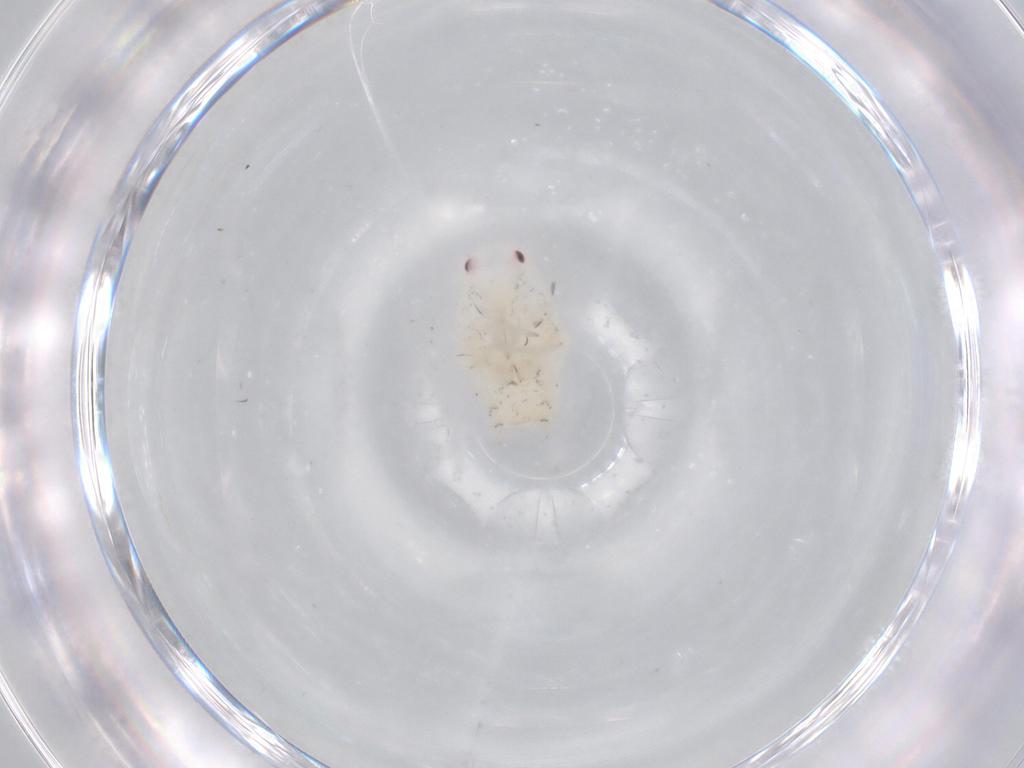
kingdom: Animalia
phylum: Arthropoda
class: Insecta
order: Hemiptera
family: Flatidae
